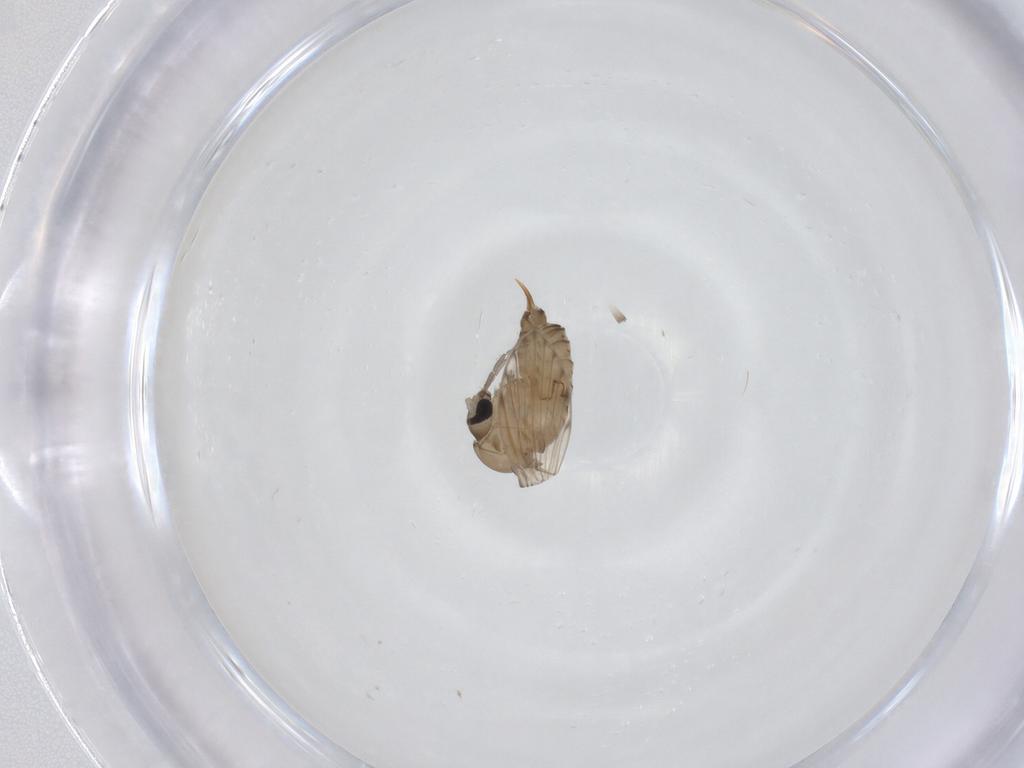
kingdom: Animalia
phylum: Arthropoda
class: Insecta
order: Diptera
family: Psychodidae
